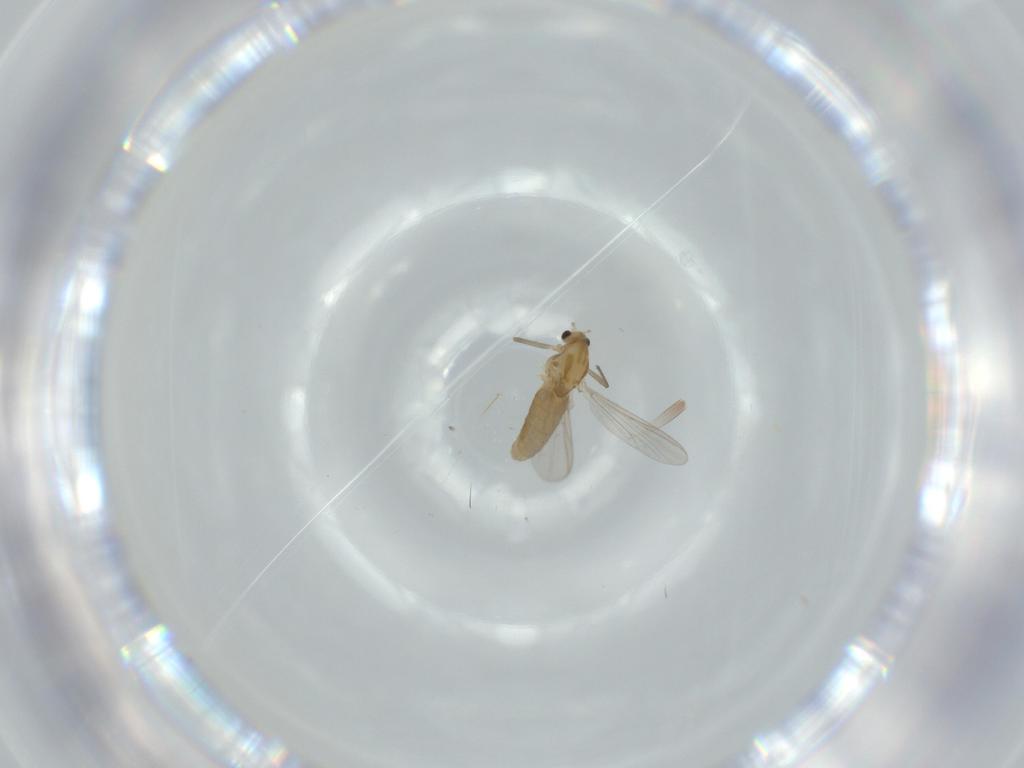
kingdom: Animalia
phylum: Arthropoda
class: Insecta
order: Diptera
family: Chironomidae
